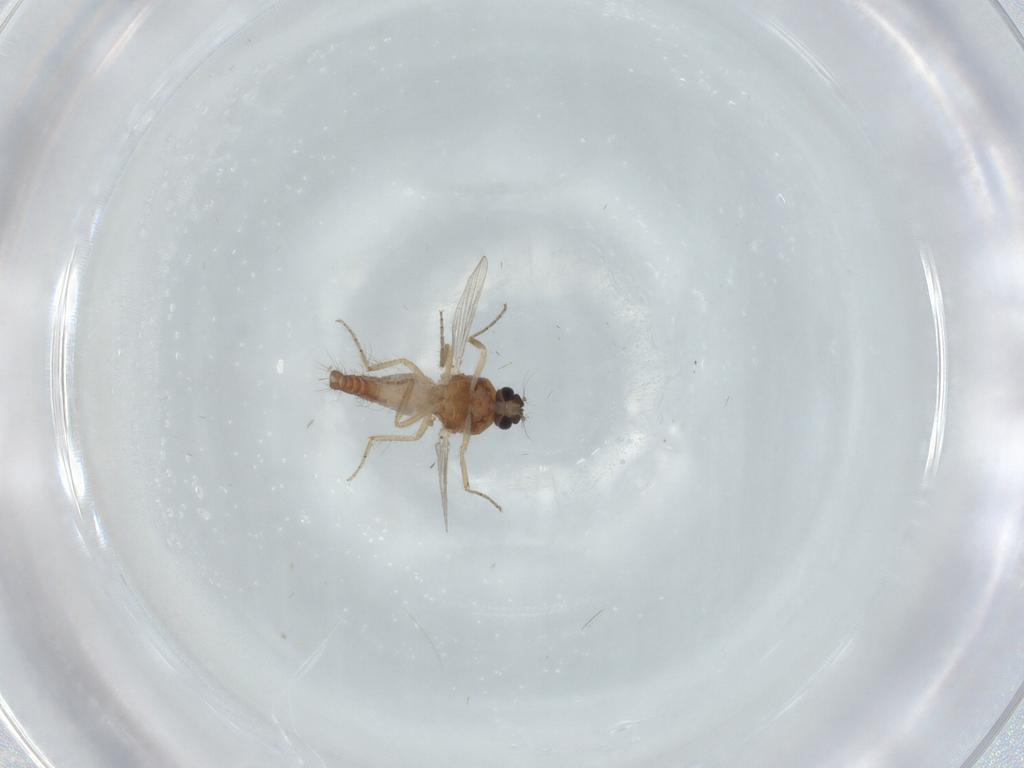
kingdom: Animalia
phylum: Arthropoda
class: Insecta
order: Diptera
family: Ceratopogonidae
